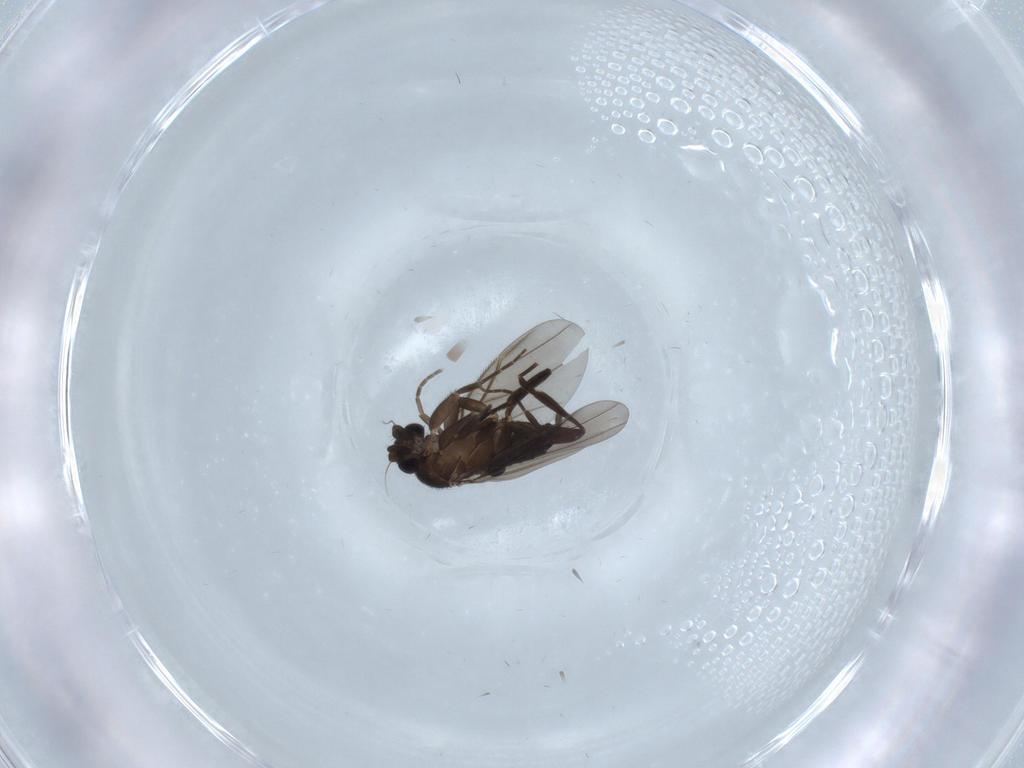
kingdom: Animalia
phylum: Arthropoda
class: Insecta
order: Diptera
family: Phoridae
